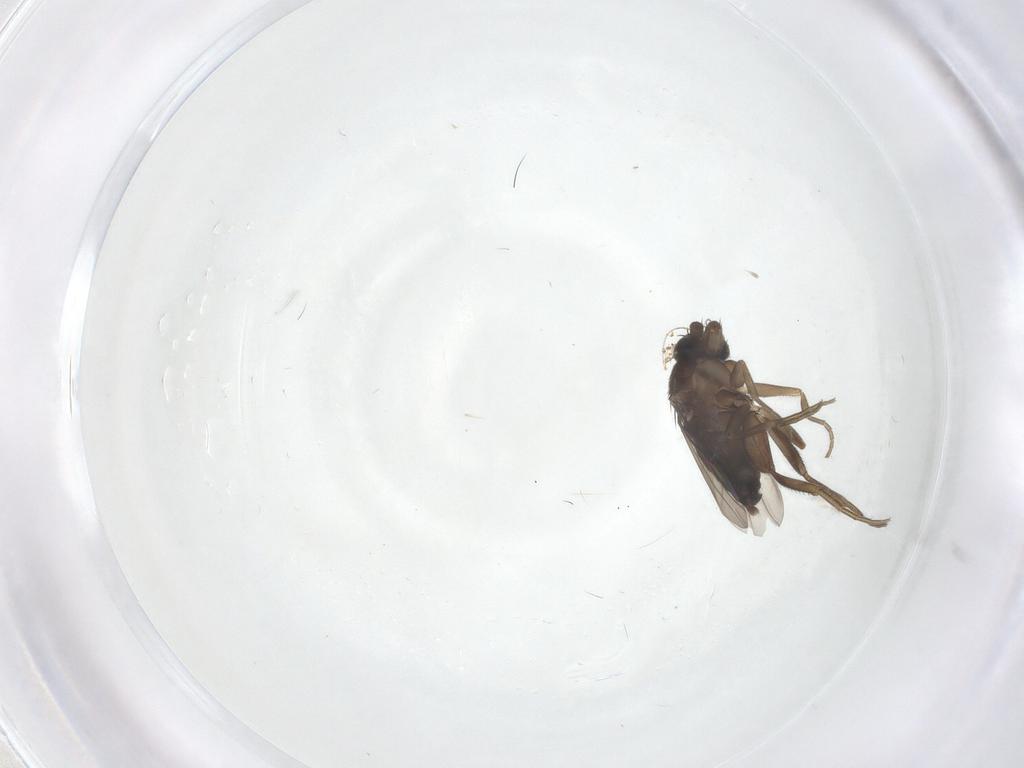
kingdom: Animalia
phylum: Arthropoda
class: Insecta
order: Diptera
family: Phoridae
